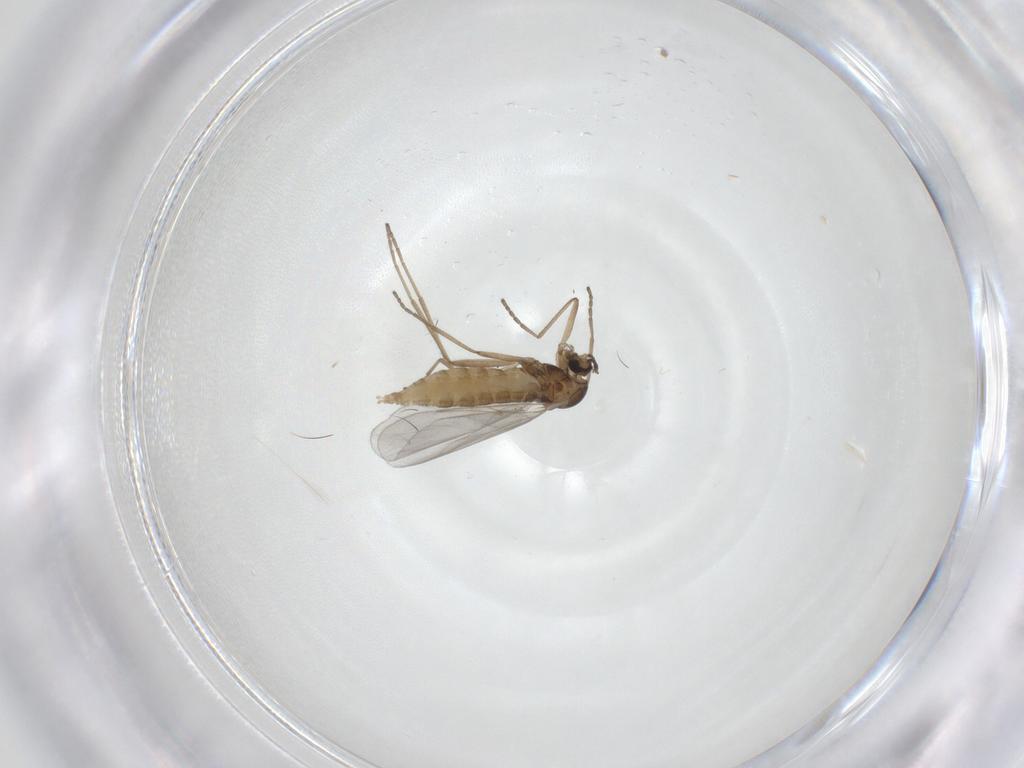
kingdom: Animalia
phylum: Arthropoda
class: Insecta
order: Diptera
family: Cecidomyiidae
